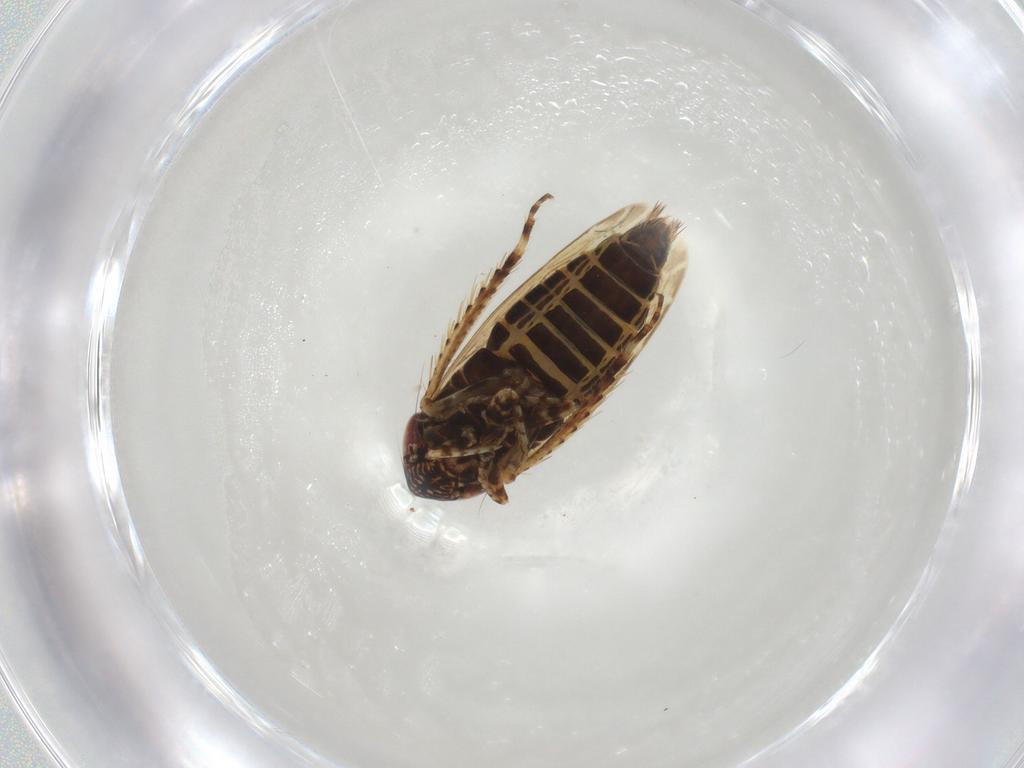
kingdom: Animalia
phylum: Arthropoda
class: Insecta
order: Hemiptera
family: Cicadellidae
